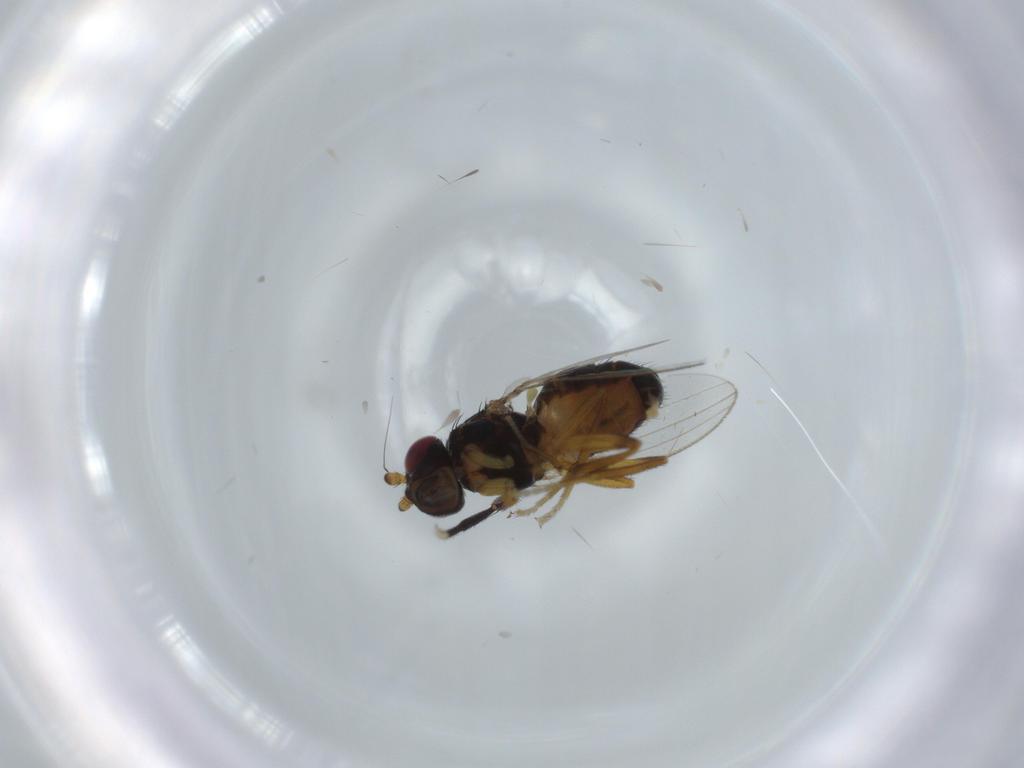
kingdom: Animalia
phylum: Arthropoda
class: Insecta
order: Diptera
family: Cypselosomatidae
